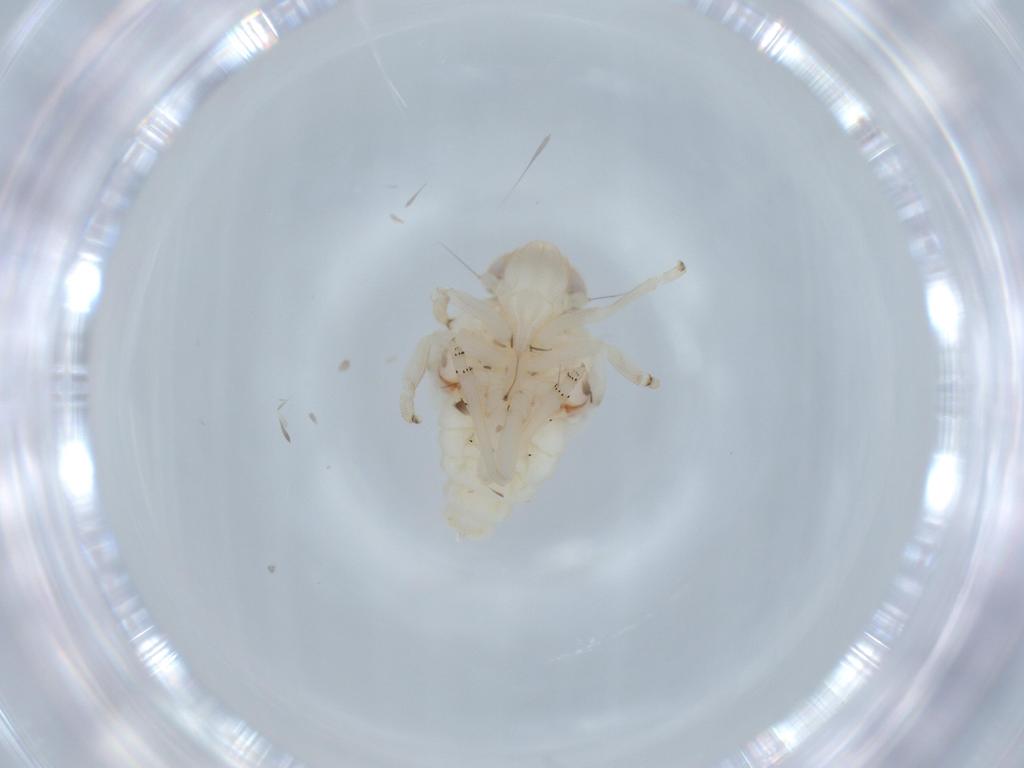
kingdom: Animalia
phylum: Arthropoda
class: Insecta
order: Hemiptera
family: Nogodinidae
